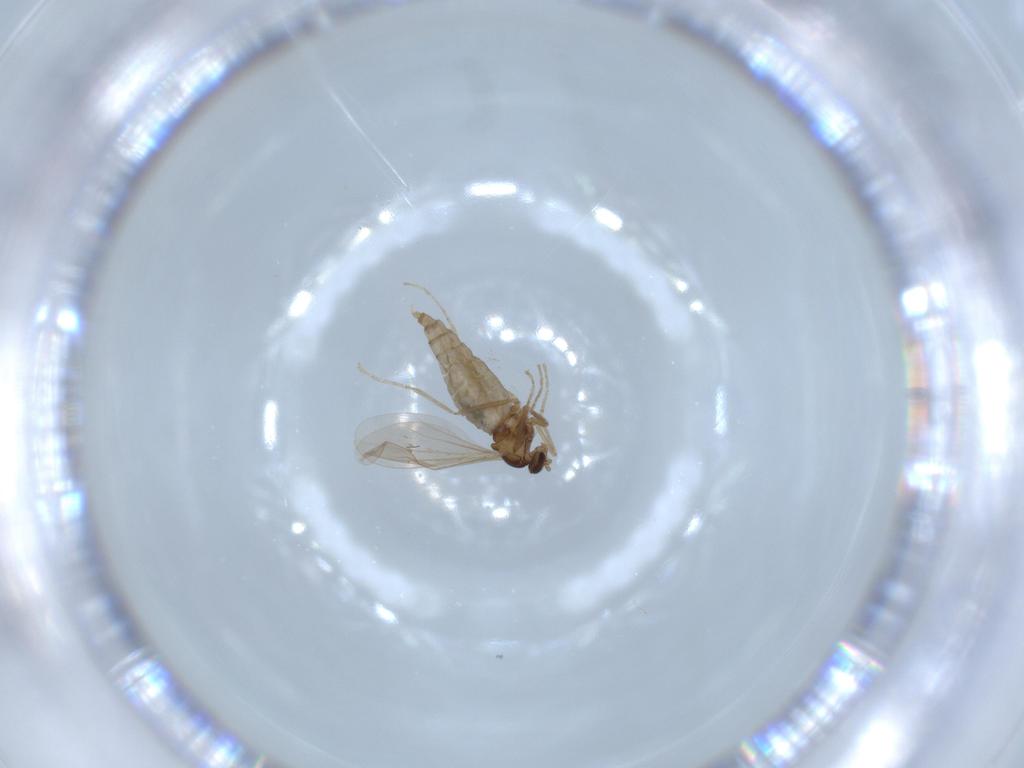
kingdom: Animalia
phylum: Arthropoda
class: Insecta
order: Diptera
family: Cecidomyiidae
